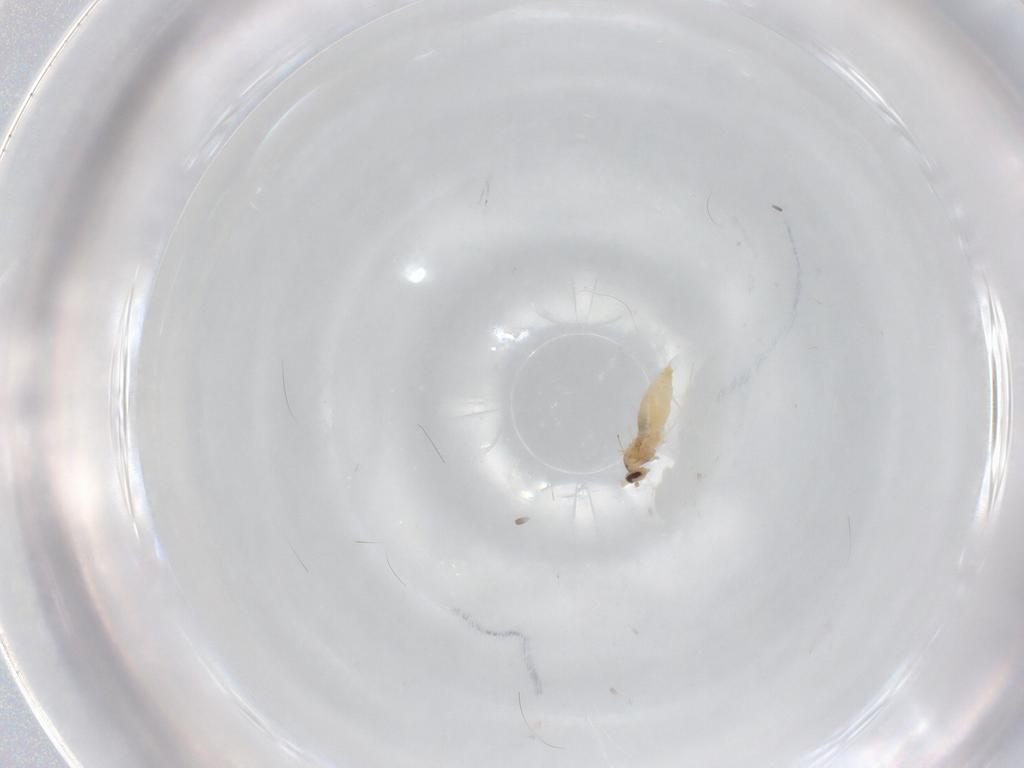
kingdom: Animalia
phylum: Arthropoda
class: Insecta
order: Diptera
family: Cecidomyiidae
